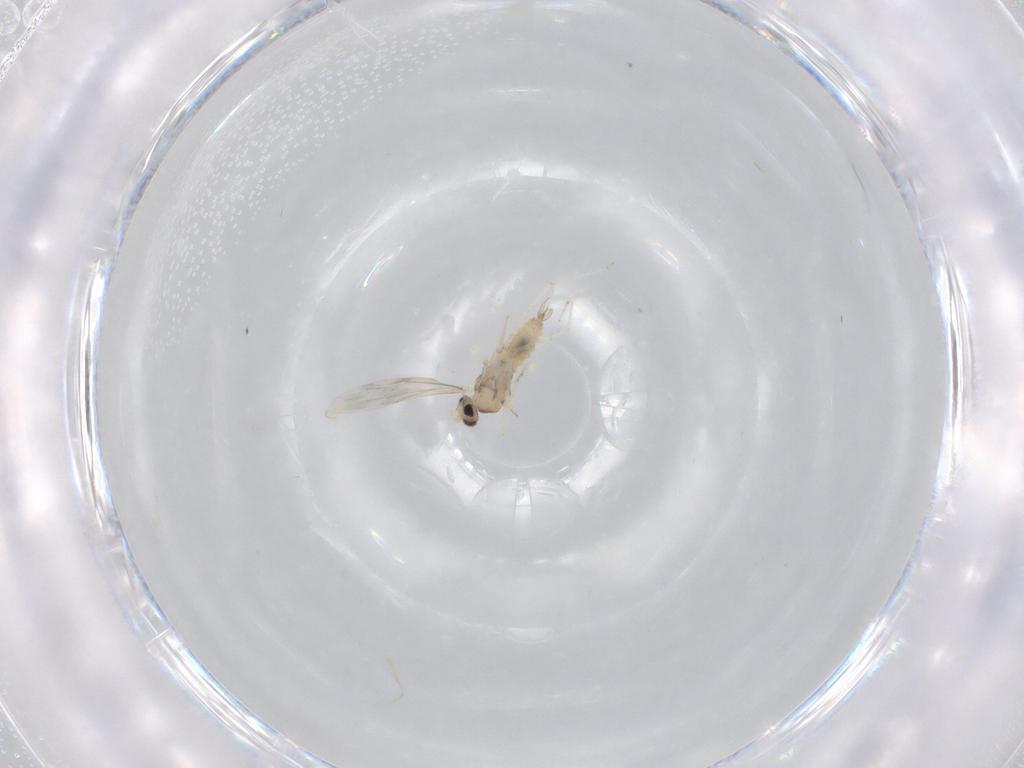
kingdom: Animalia
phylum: Arthropoda
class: Insecta
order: Diptera
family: Cecidomyiidae
